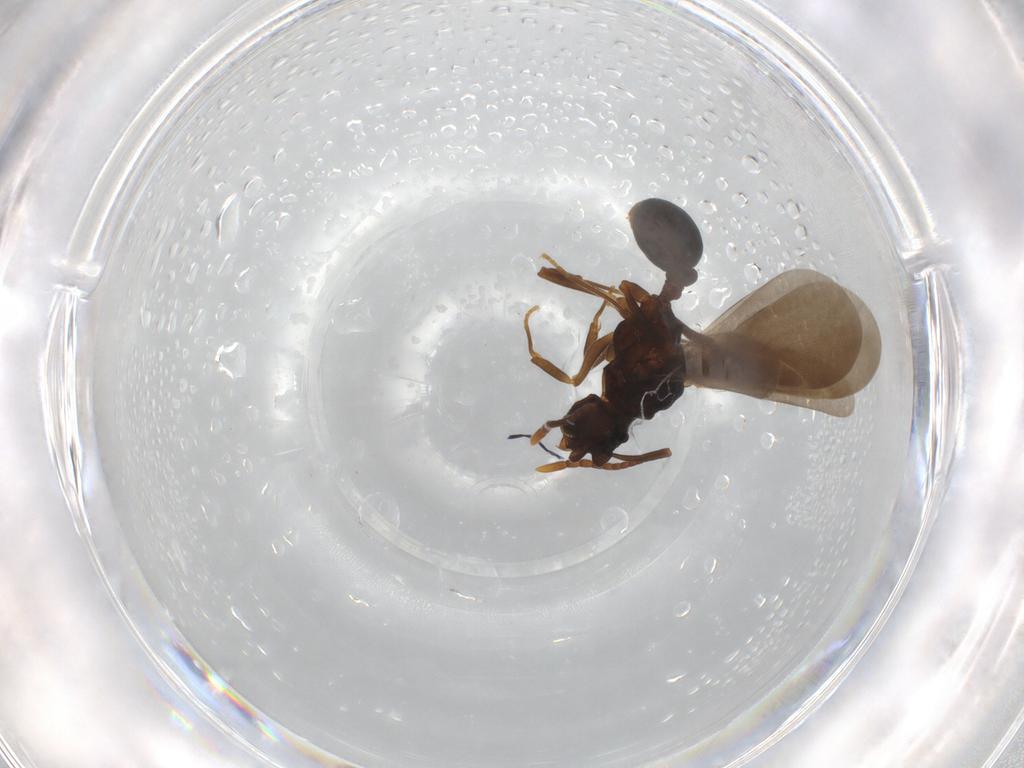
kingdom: Animalia
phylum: Arthropoda
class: Insecta
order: Hymenoptera
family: Formicidae
